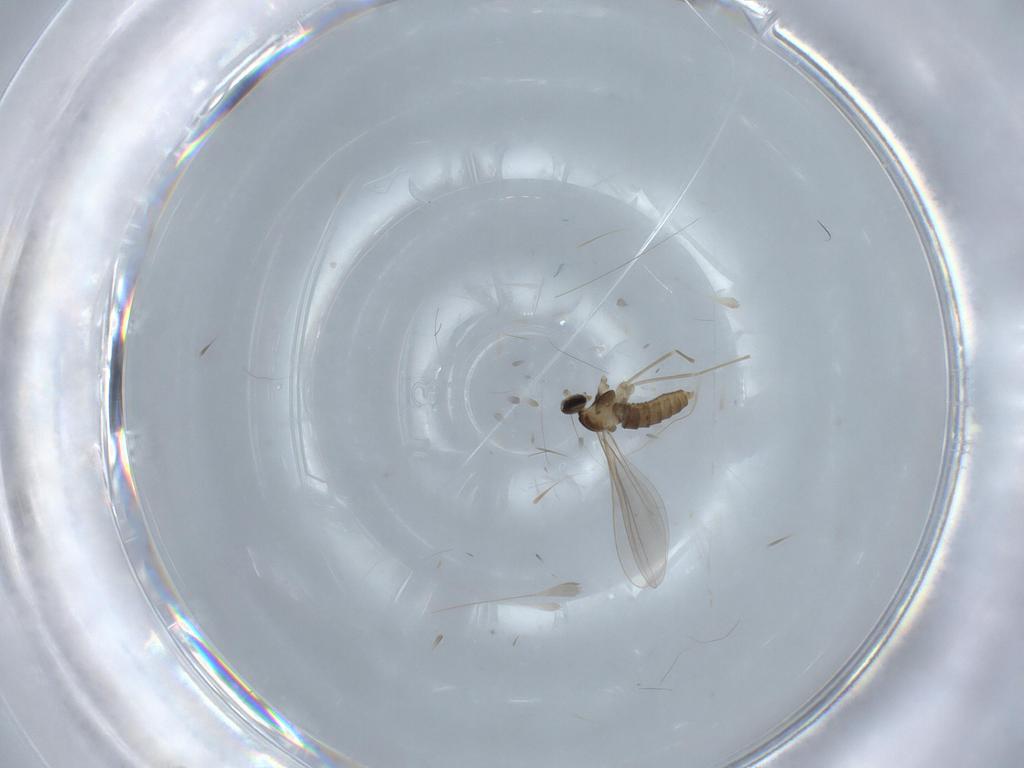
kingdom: Animalia
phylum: Arthropoda
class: Insecta
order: Diptera
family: Cecidomyiidae
